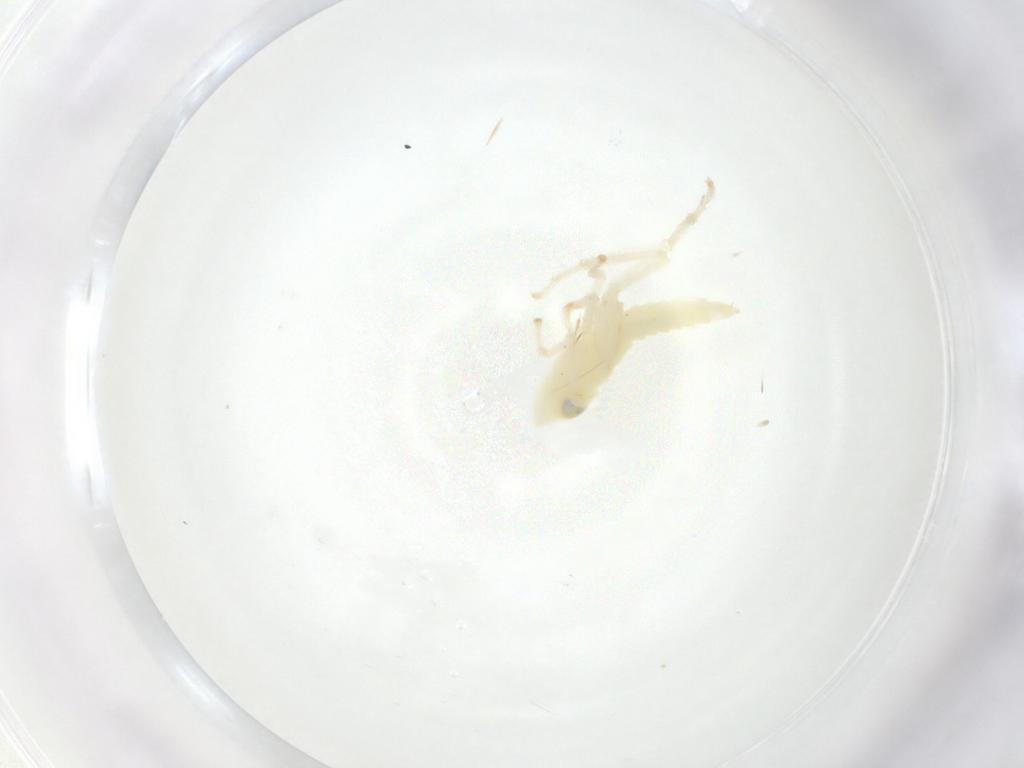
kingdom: Animalia
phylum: Arthropoda
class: Insecta
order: Hemiptera
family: Cicadellidae
